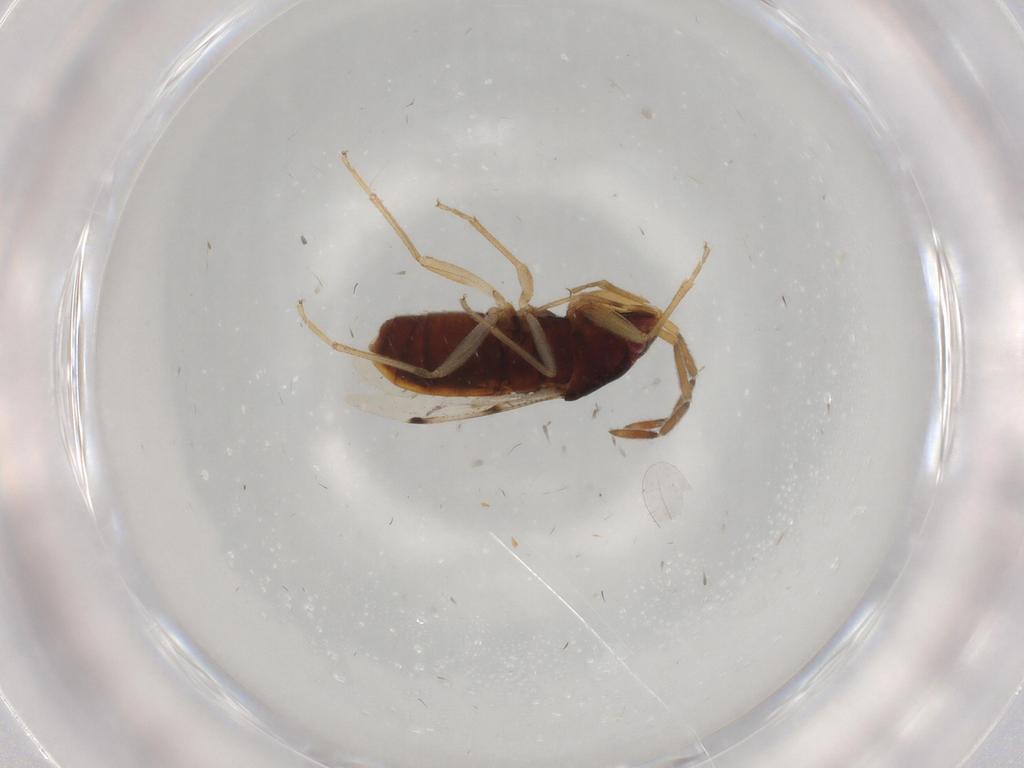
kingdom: Animalia
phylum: Arthropoda
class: Insecta
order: Hemiptera
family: Rhyparochromidae
